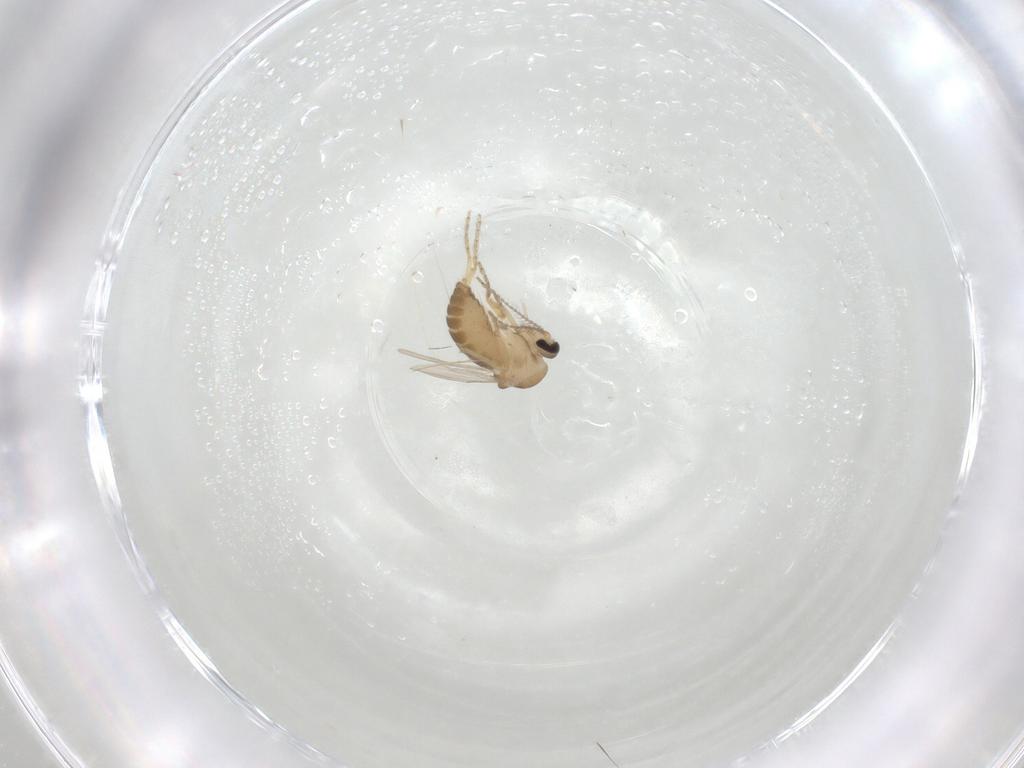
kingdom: Animalia
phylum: Arthropoda
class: Insecta
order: Diptera
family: Ceratopogonidae
